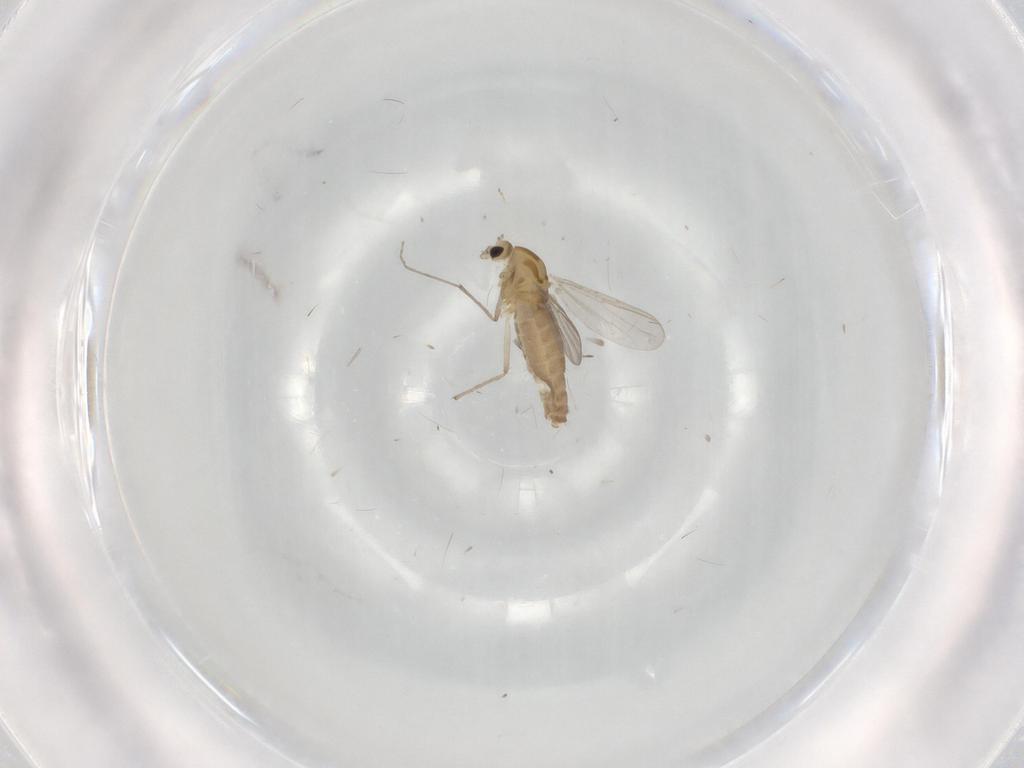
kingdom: Animalia
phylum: Arthropoda
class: Insecta
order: Diptera
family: Chironomidae
